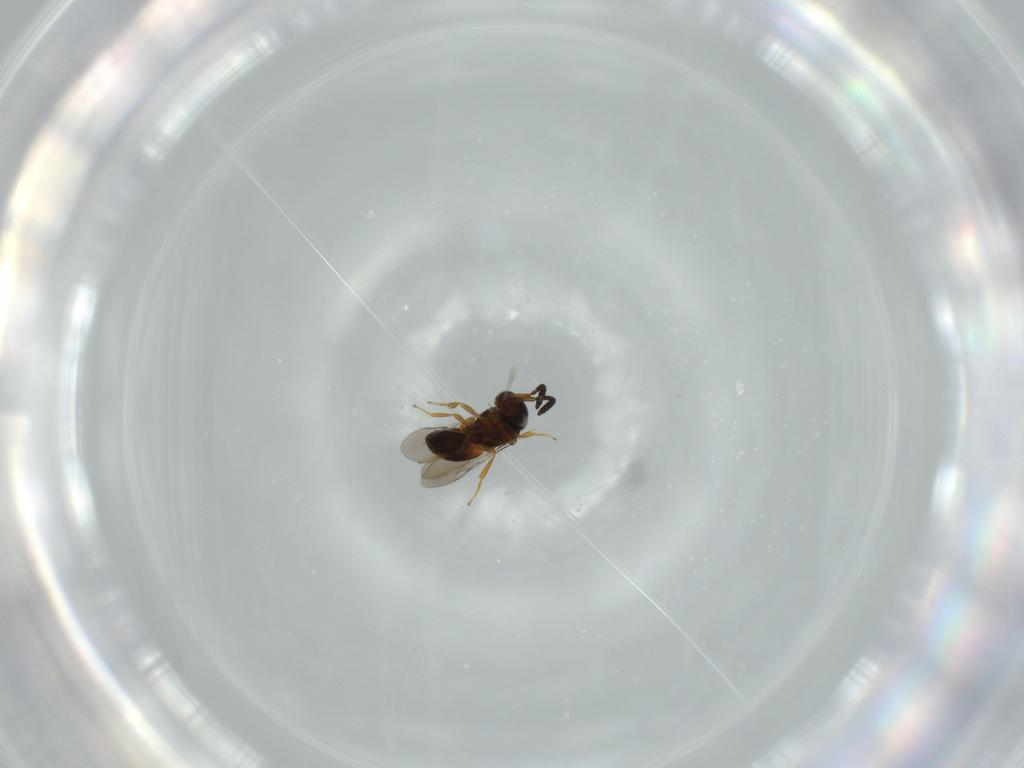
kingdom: Animalia
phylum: Arthropoda
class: Insecta
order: Hymenoptera
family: Scelionidae
